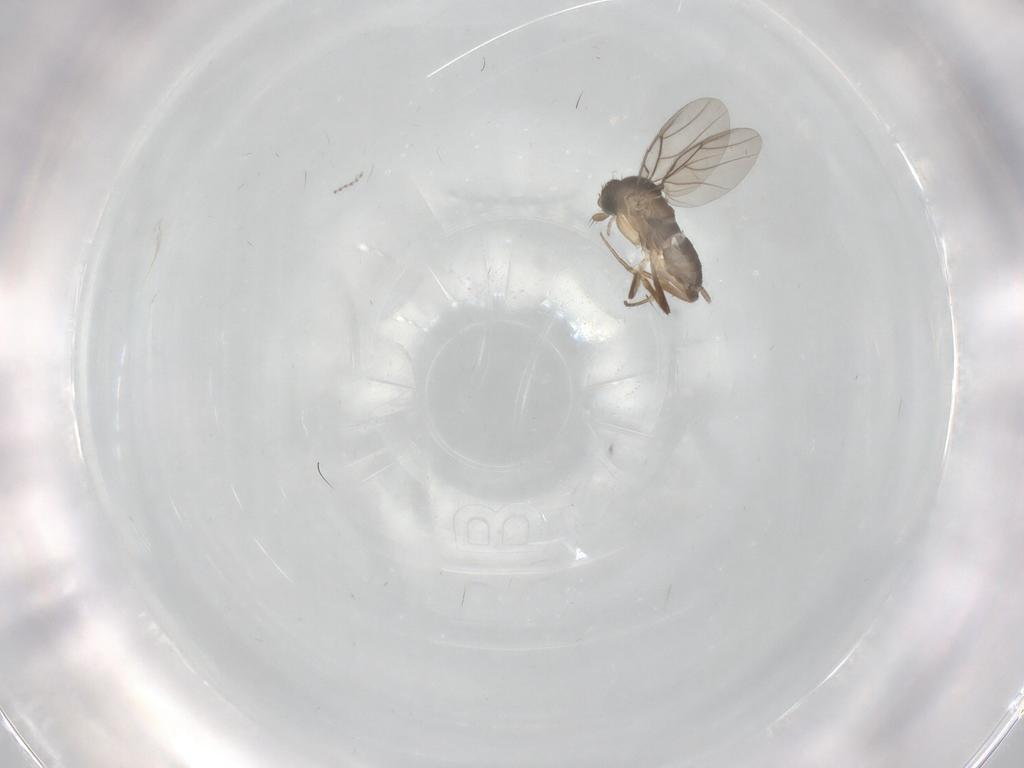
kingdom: Animalia
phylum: Arthropoda
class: Insecta
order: Diptera
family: Phoridae
